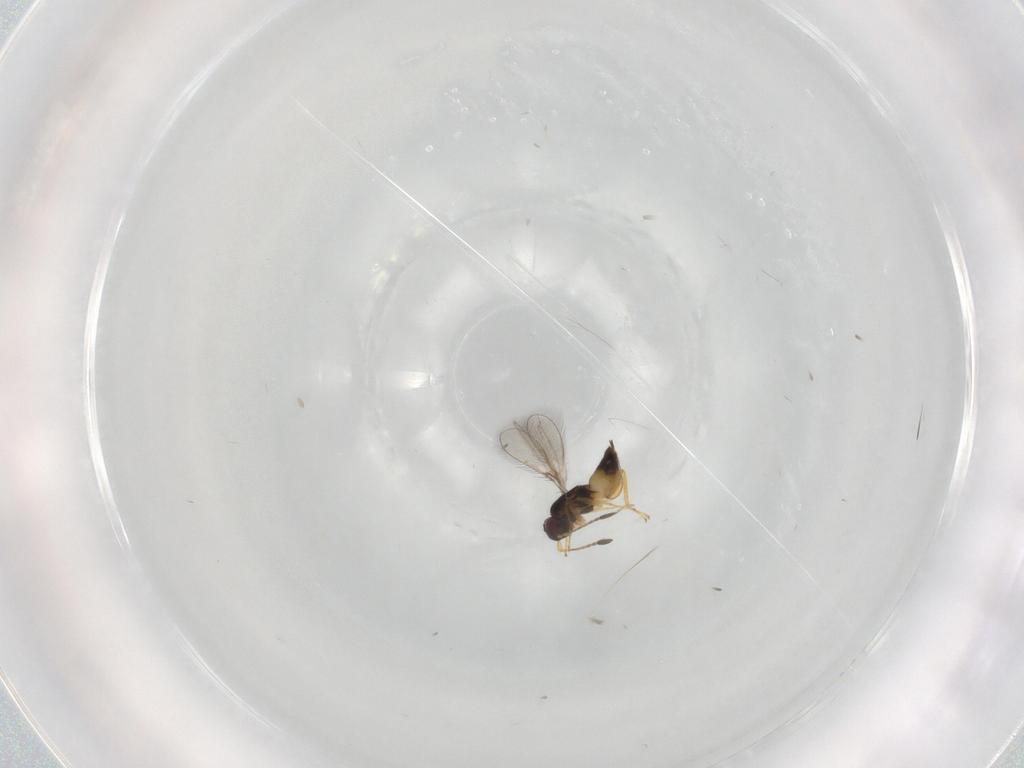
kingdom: Animalia
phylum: Arthropoda
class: Insecta
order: Hymenoptera
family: Mymaridae
